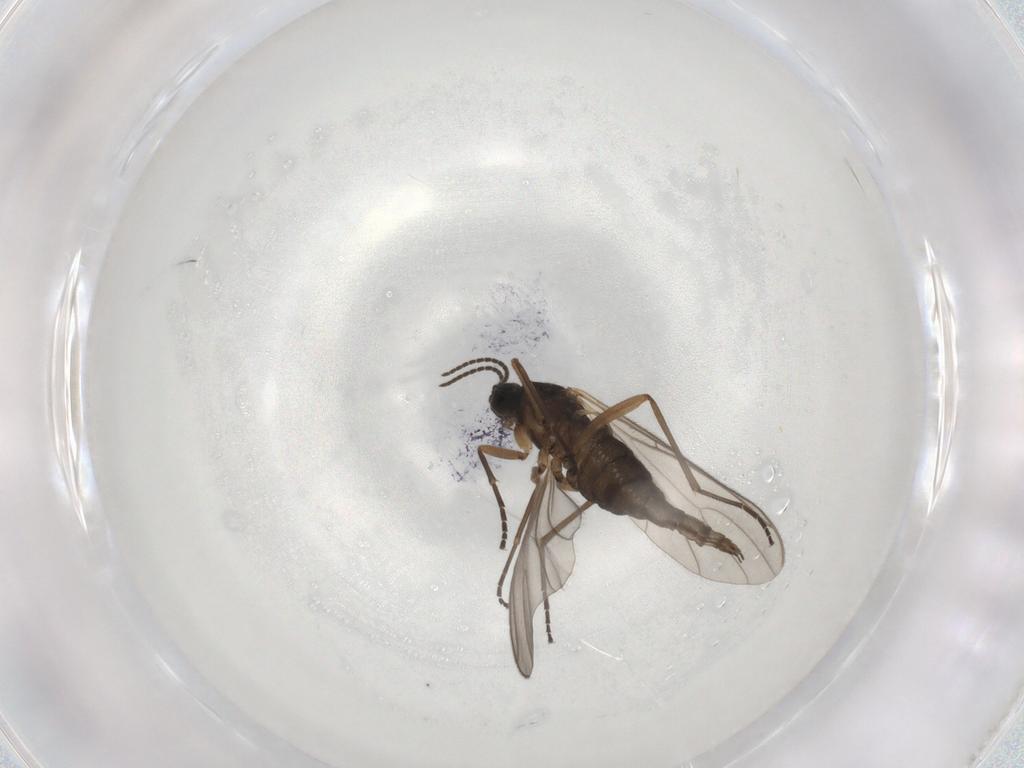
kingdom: Animalia
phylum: Arthropoda
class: Insecta
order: Diptera
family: Sciaridae
